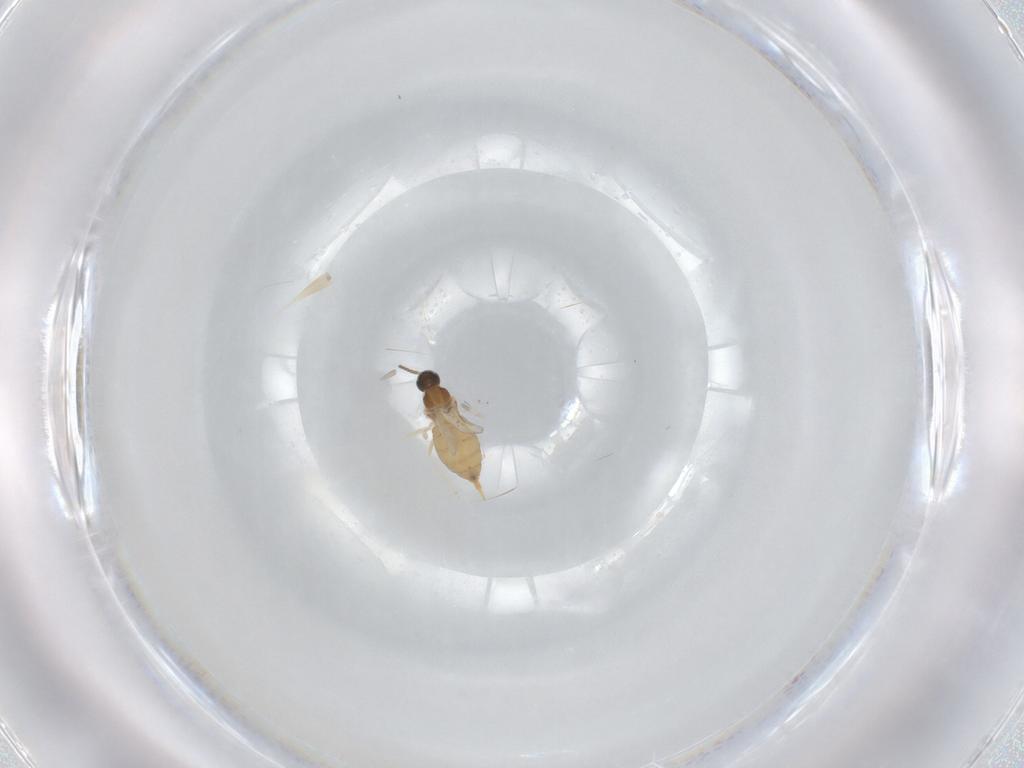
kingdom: Animalia
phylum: Arthropoda
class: Insecta
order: Diptera
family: Cecidomyiidae
